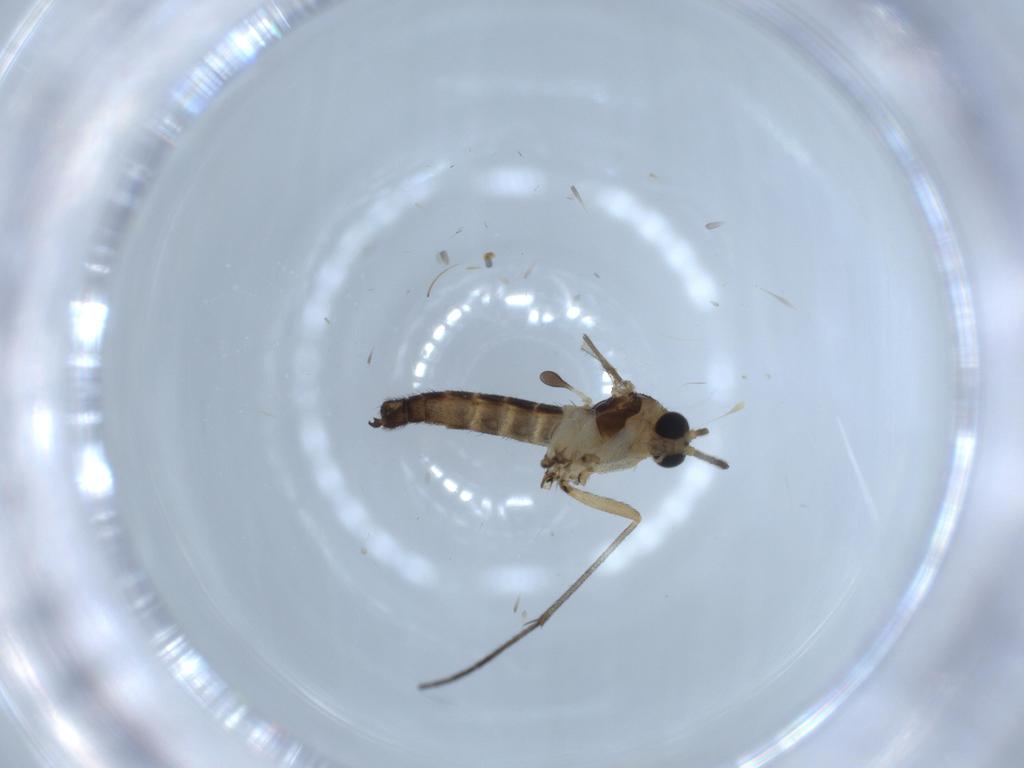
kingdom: Animalia
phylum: Arthropoda
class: Insecta
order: Diptera
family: Sciaridae
